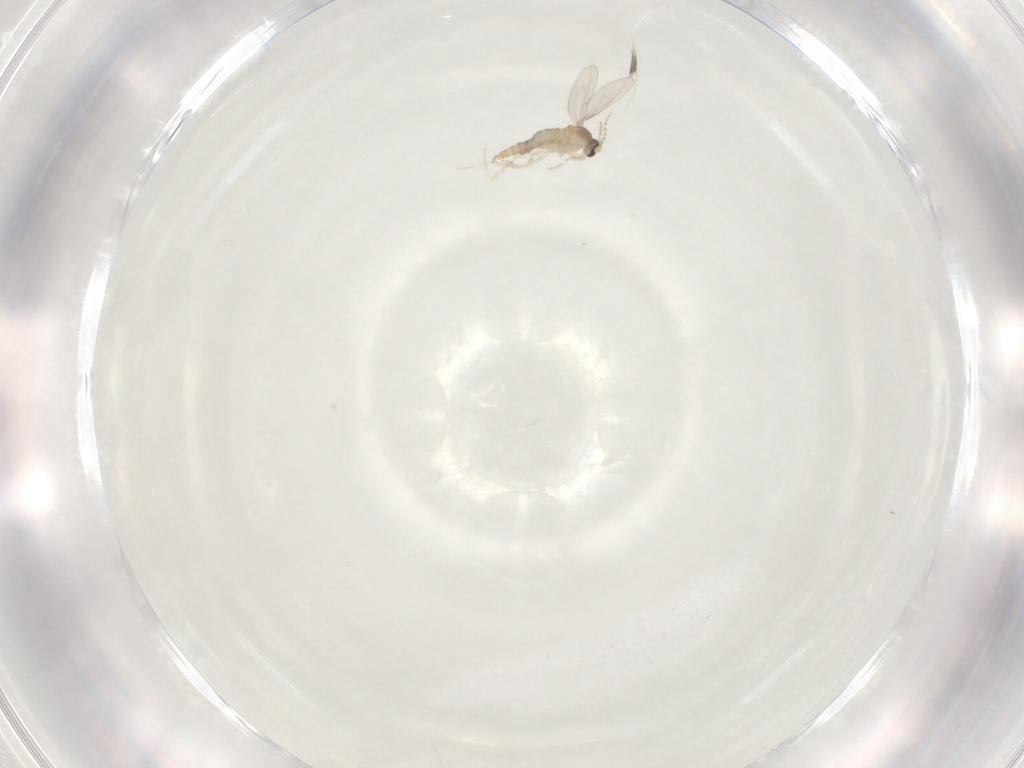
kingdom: Animalia
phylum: Arthropoda
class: Insecta
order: Diptera
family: Cecidomyiidae
